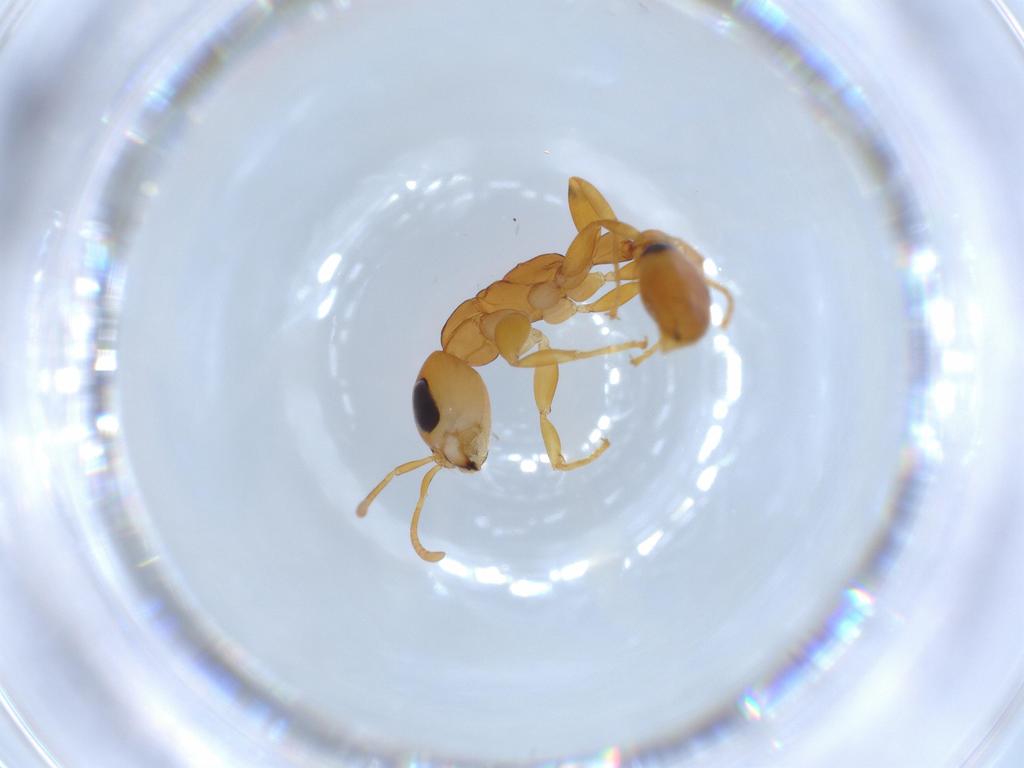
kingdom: Animalia
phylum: Arthropoda
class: Insecta
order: Hymenoptera
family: Formicidae
